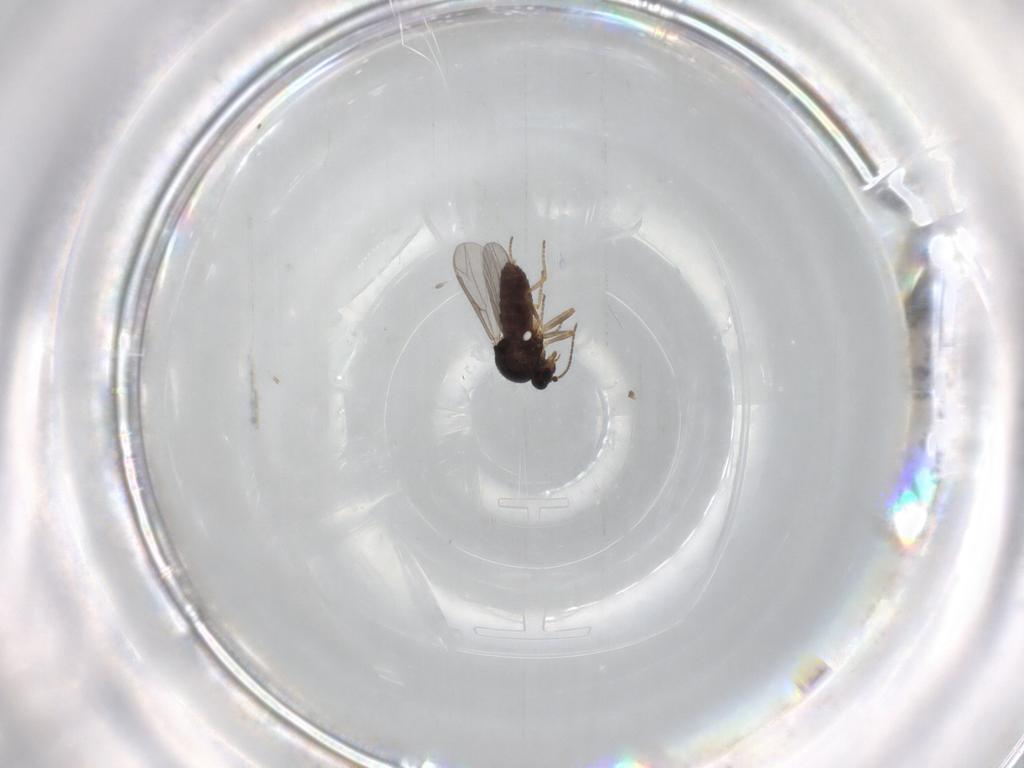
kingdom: Animalia
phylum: Arthropoda
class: Insecta
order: Diptera
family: Ceratopogonidae
